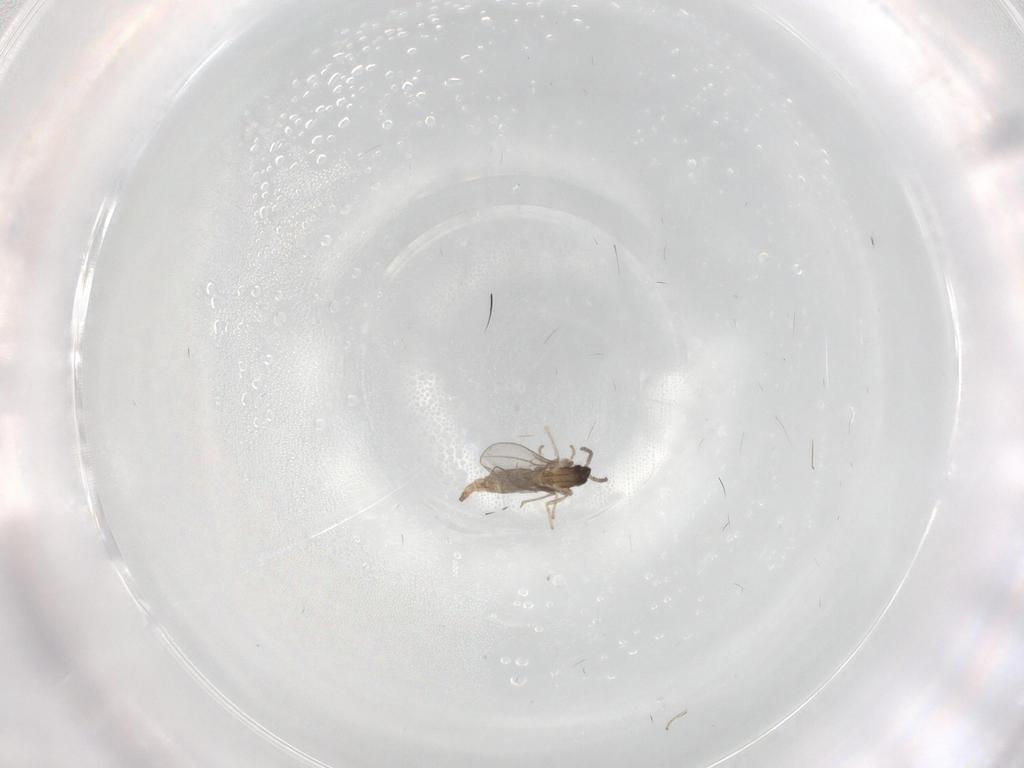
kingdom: Animalia
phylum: Arthropoda
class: Insecta
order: Diptera
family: Cecidomyiidae
